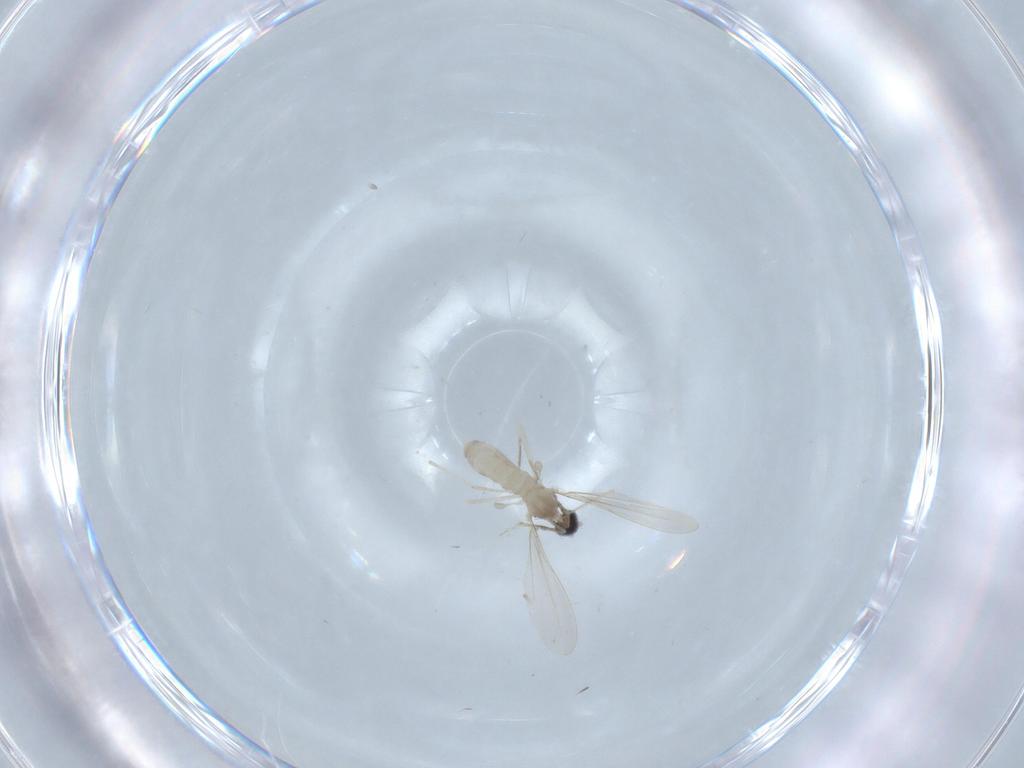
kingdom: Animalia
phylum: Arthropoda
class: Insecta
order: Diptera
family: Cecidomyiidae
